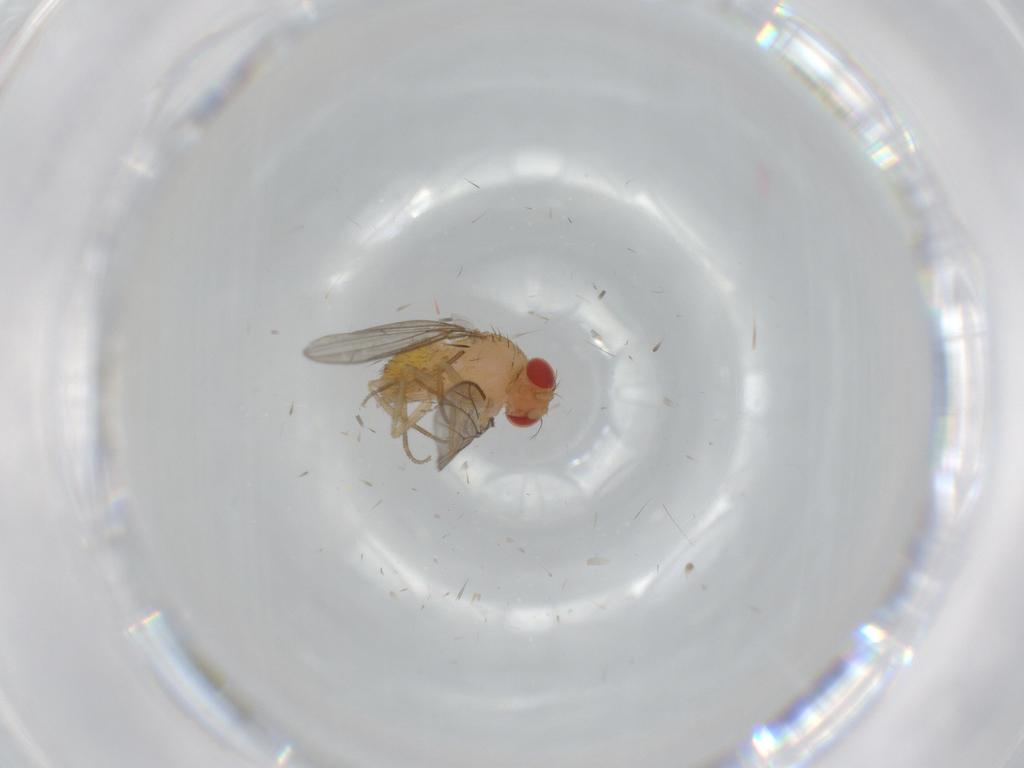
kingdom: Animalia
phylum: Arthropoda
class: Insecta
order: Diptera
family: Drosophilidae
